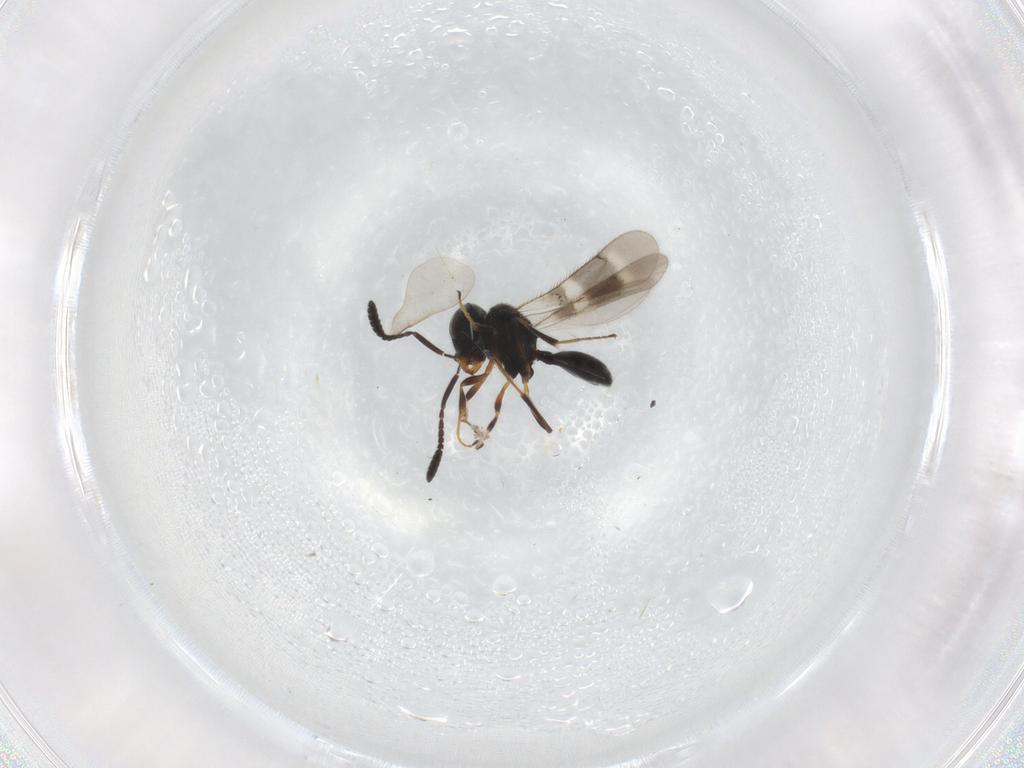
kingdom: Animalia
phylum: Arthropoda
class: Insecta
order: Hymenoptera
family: Scelionidae
